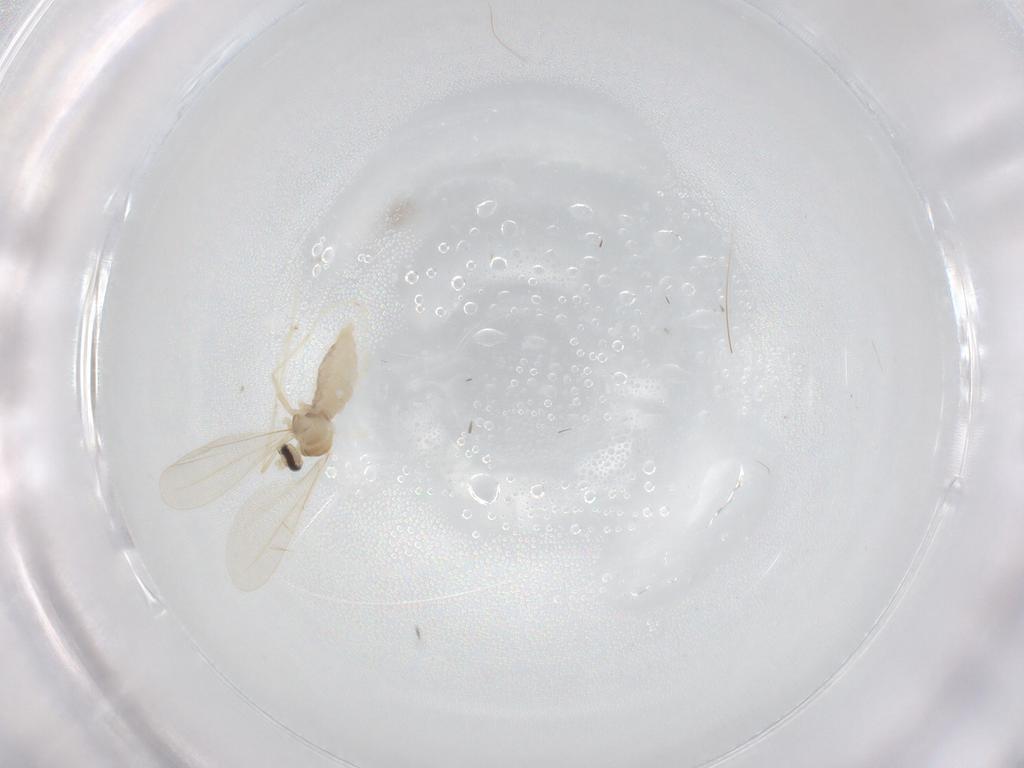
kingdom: Animalia
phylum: Arthropoda
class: Insecta
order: Diptera
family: Cecidomyiidae
